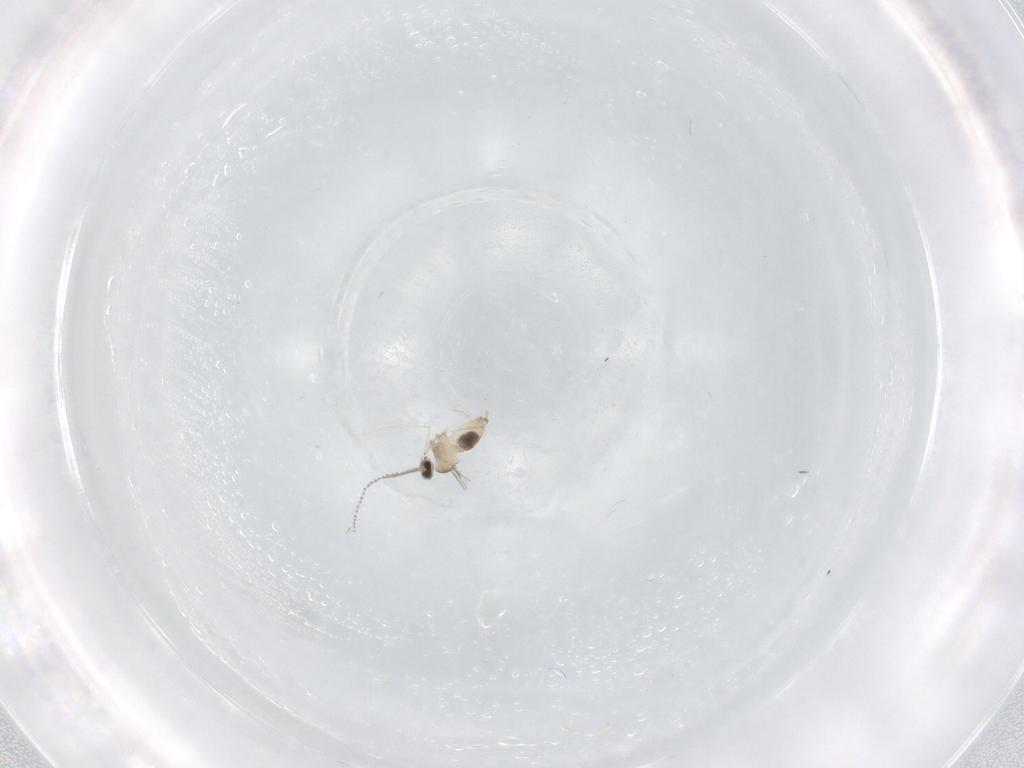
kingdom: Animalia
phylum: Arthropoda
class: Insecta
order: Diptera
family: Cecidomyiidae
